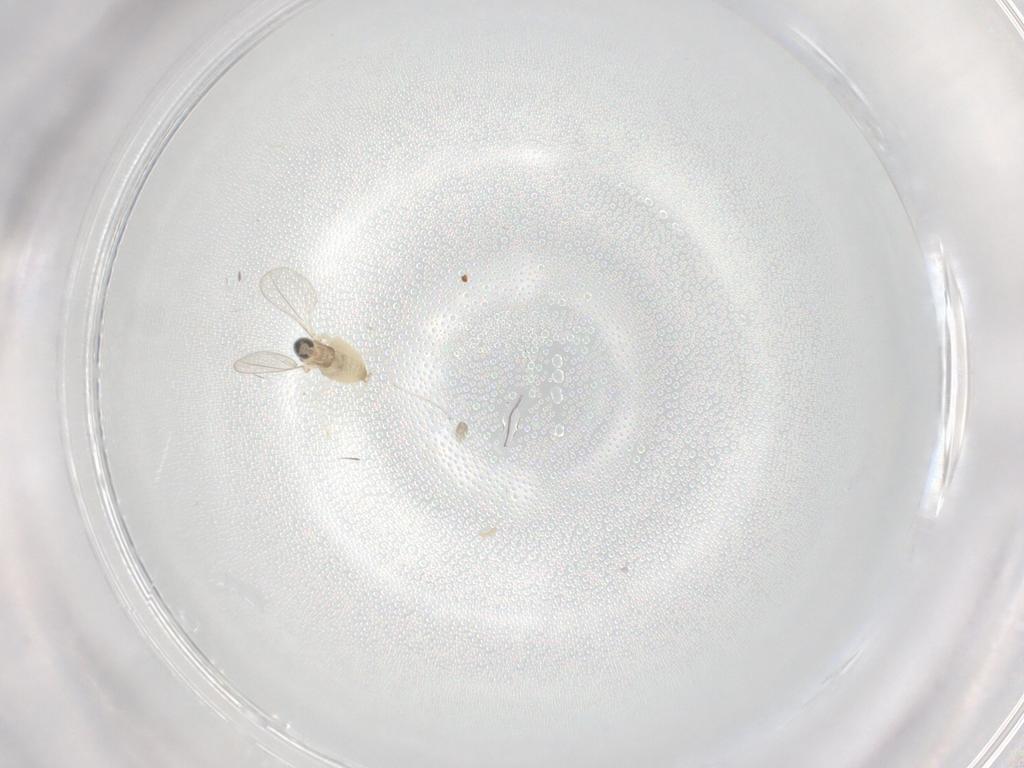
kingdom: Animalia
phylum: Arthropoda
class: Insecta
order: Diptera
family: Cecidomyiidae
